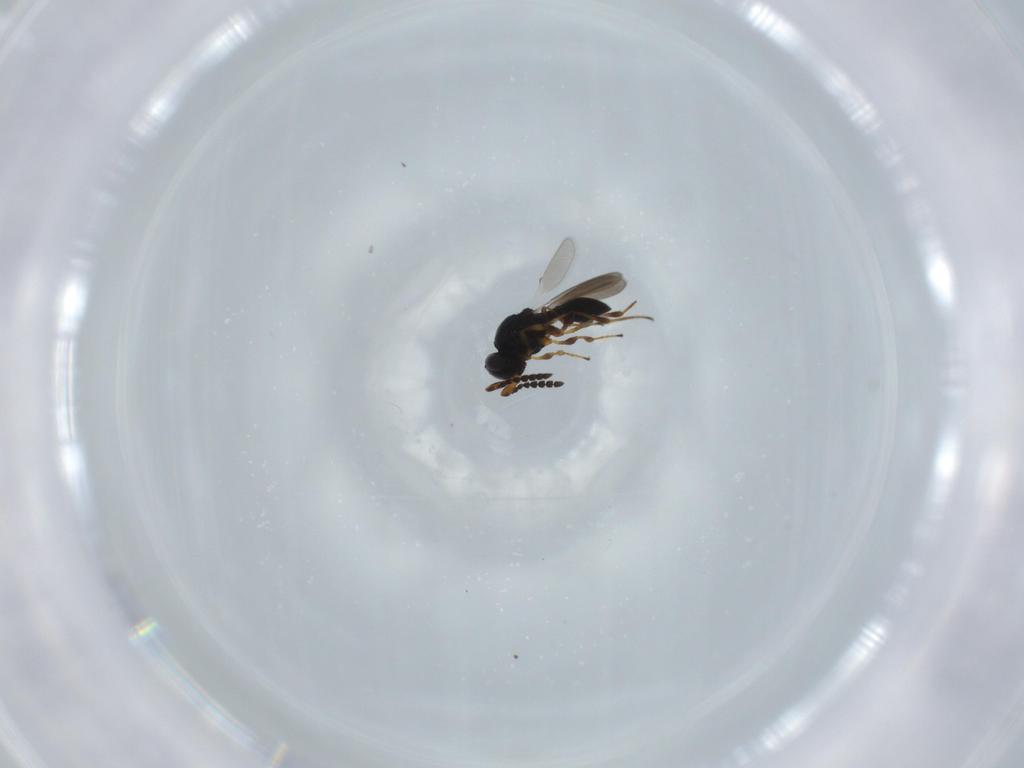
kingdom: Animalia
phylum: Arthropoda
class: Insecta
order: Hymenoptera
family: Platygastridae
